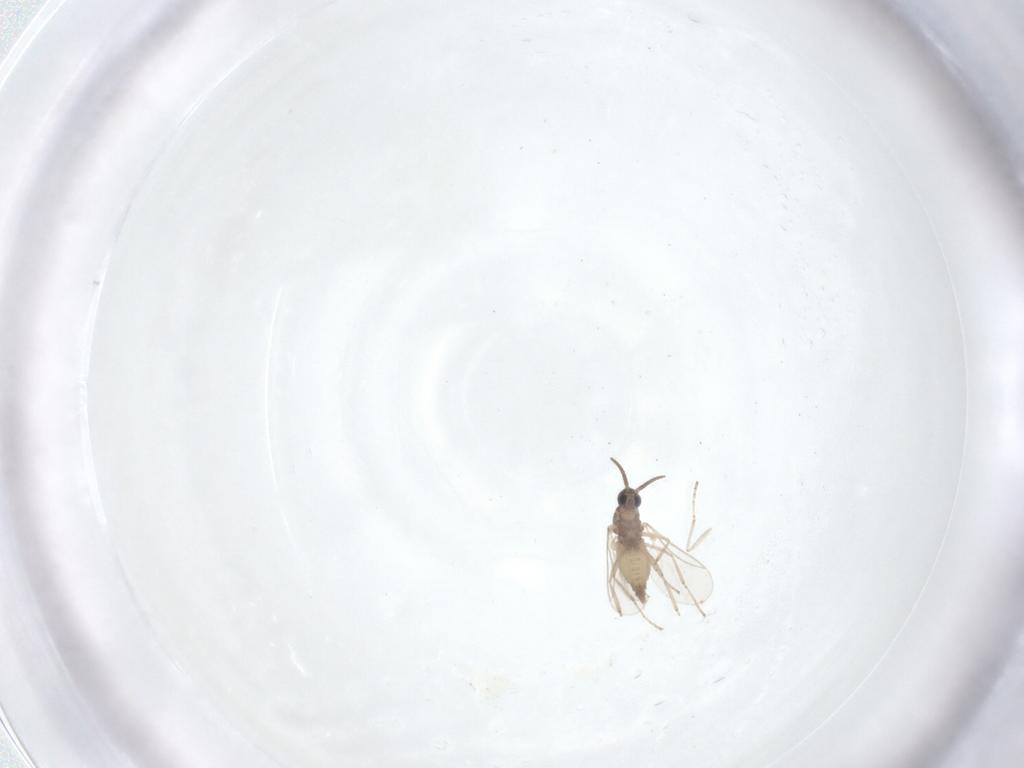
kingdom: Animalia
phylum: Arthropoda
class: Insecta
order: Diptera
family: Cecidomyiidae
